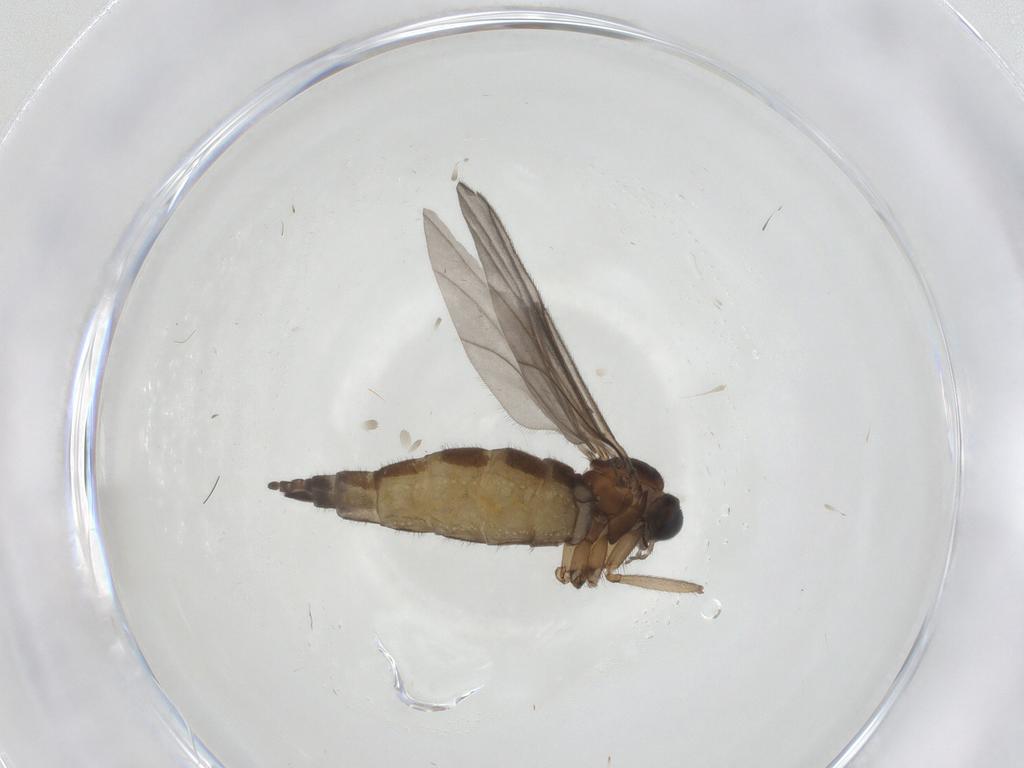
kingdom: Animalia
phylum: Arthropoda
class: Insecta
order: Diptera
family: Sciaridae
